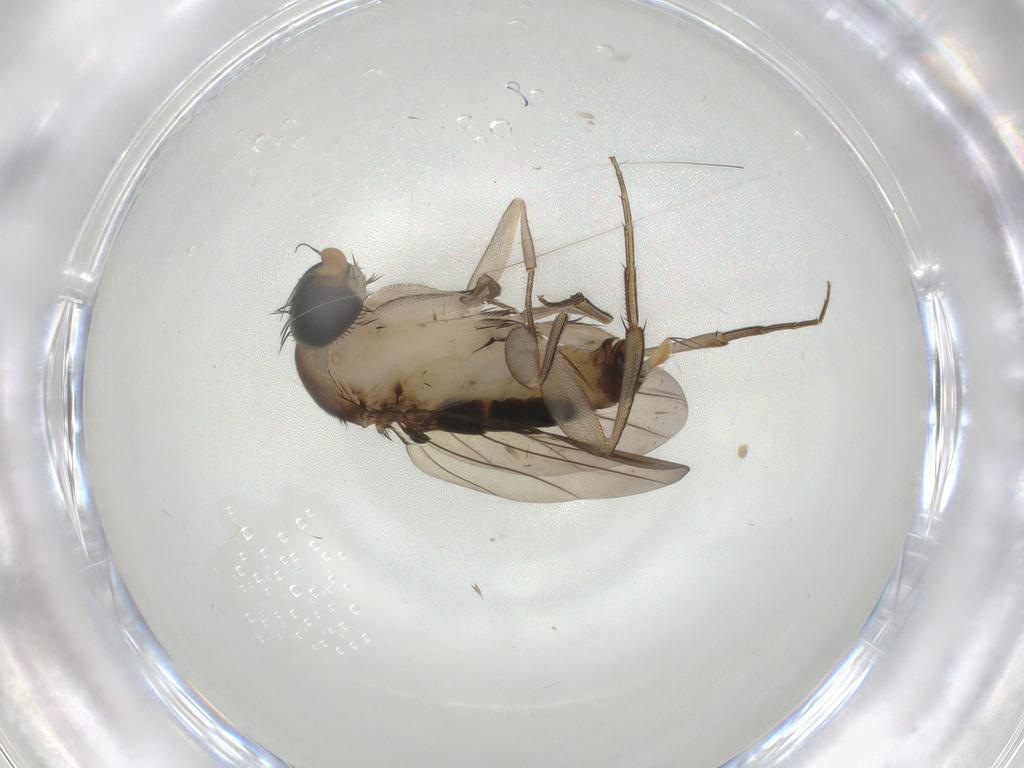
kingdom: Animalia
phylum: Arthropoda
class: Insecta
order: Diptera
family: Phoridae
